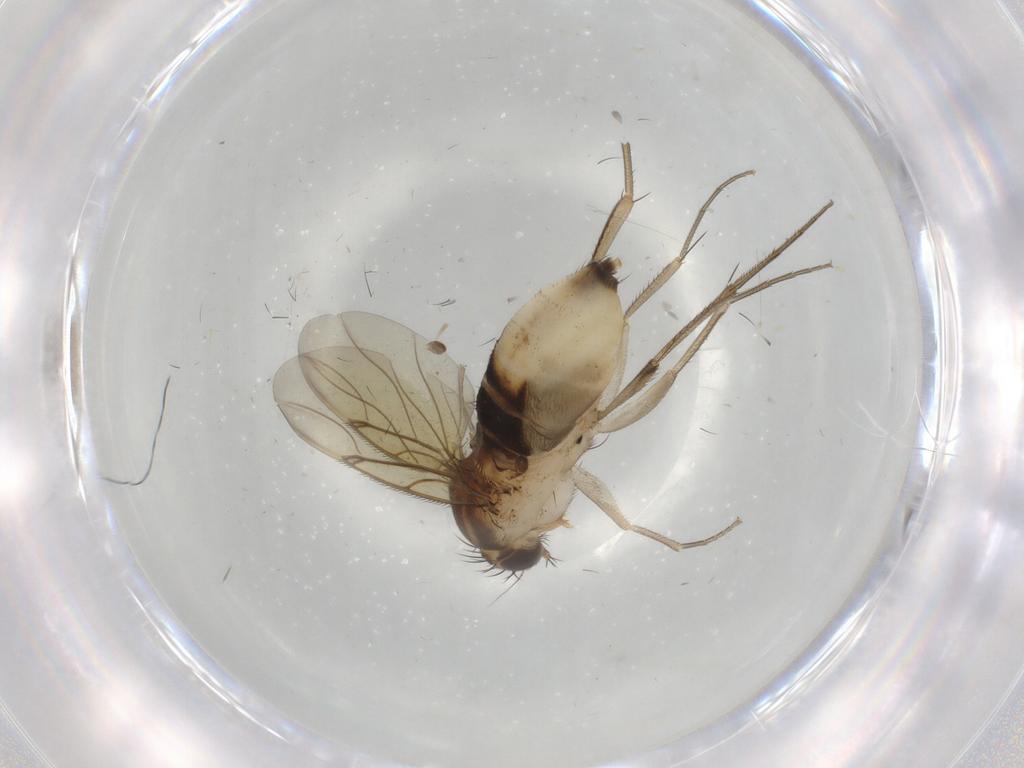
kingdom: Animalia
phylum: Arthropoda
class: Insecta
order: Diptera
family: Phoridae
